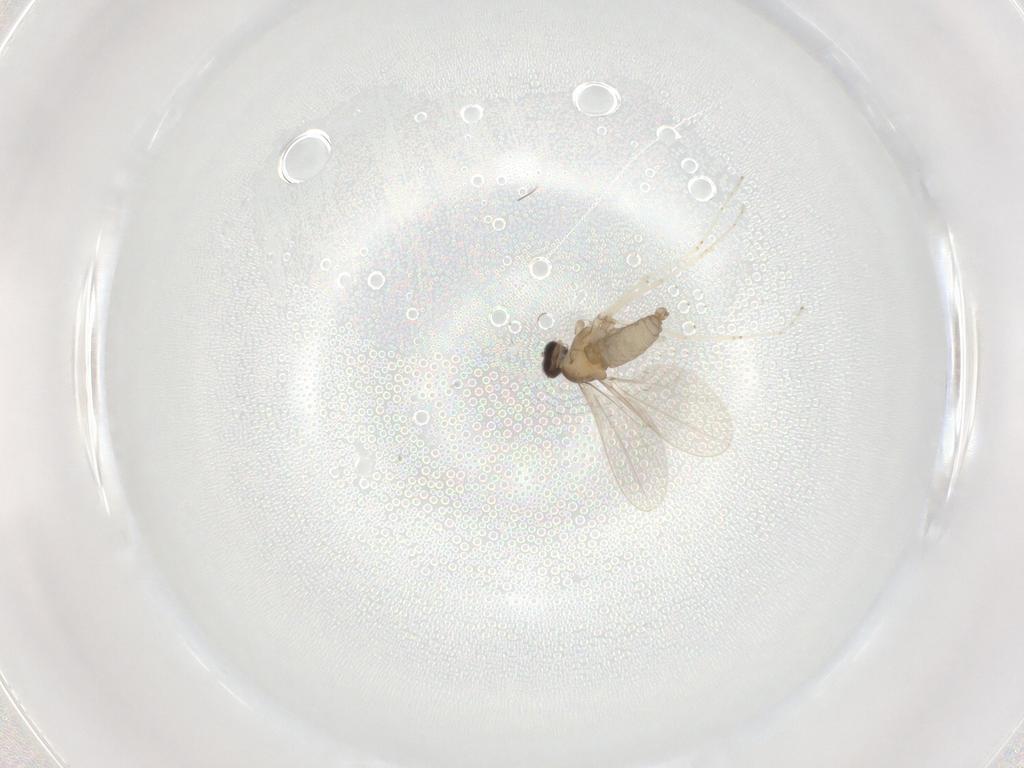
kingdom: Animalia
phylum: Arthropoda
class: Insecta
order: Diptera
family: Cecidomyiidae
